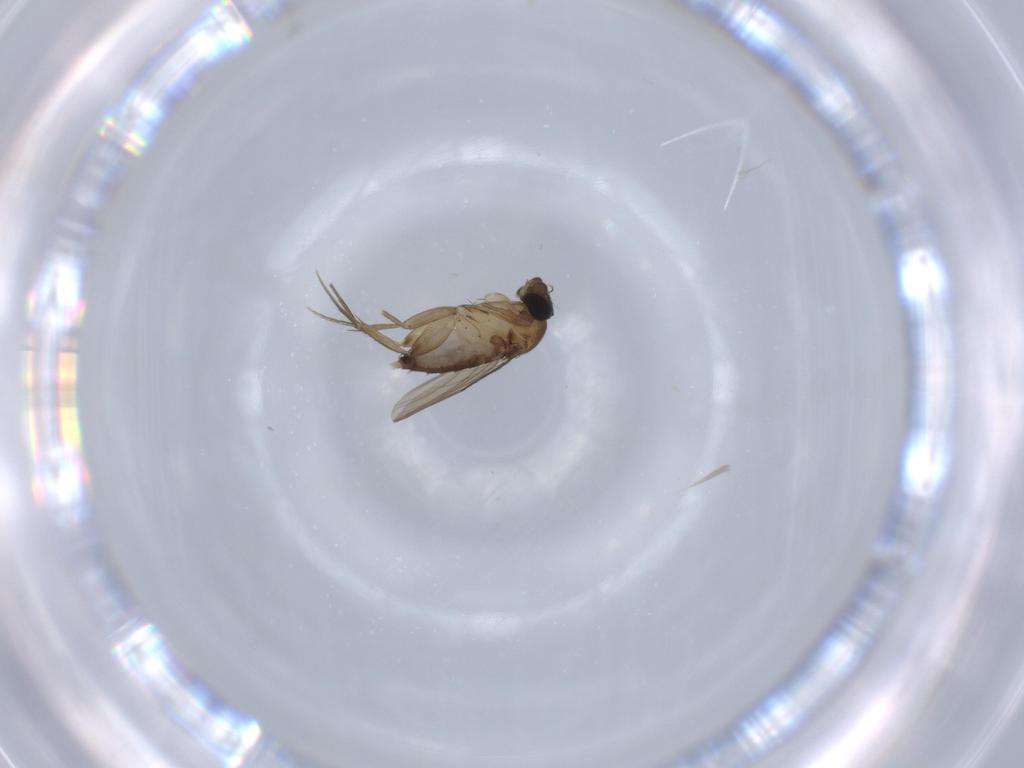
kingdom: Animalia
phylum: Arthropoda
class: Insecta
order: Diptera
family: Phoridae
